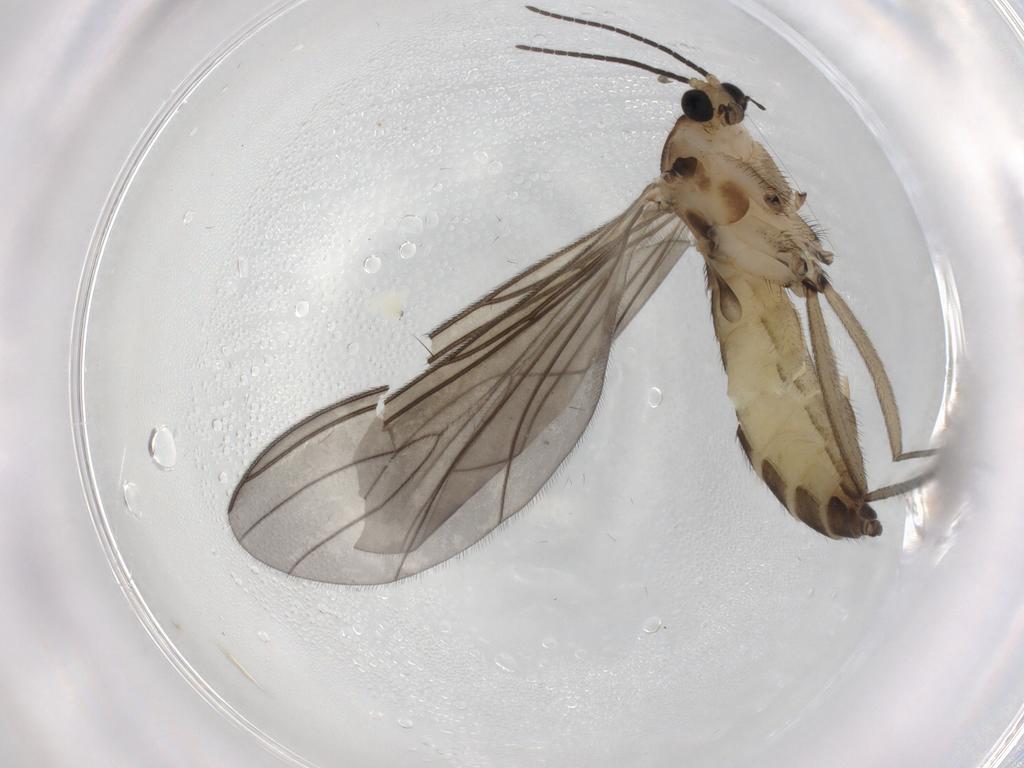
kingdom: Animalia
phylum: Arthropoda
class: Insecta
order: Diptera
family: Sciaridae
